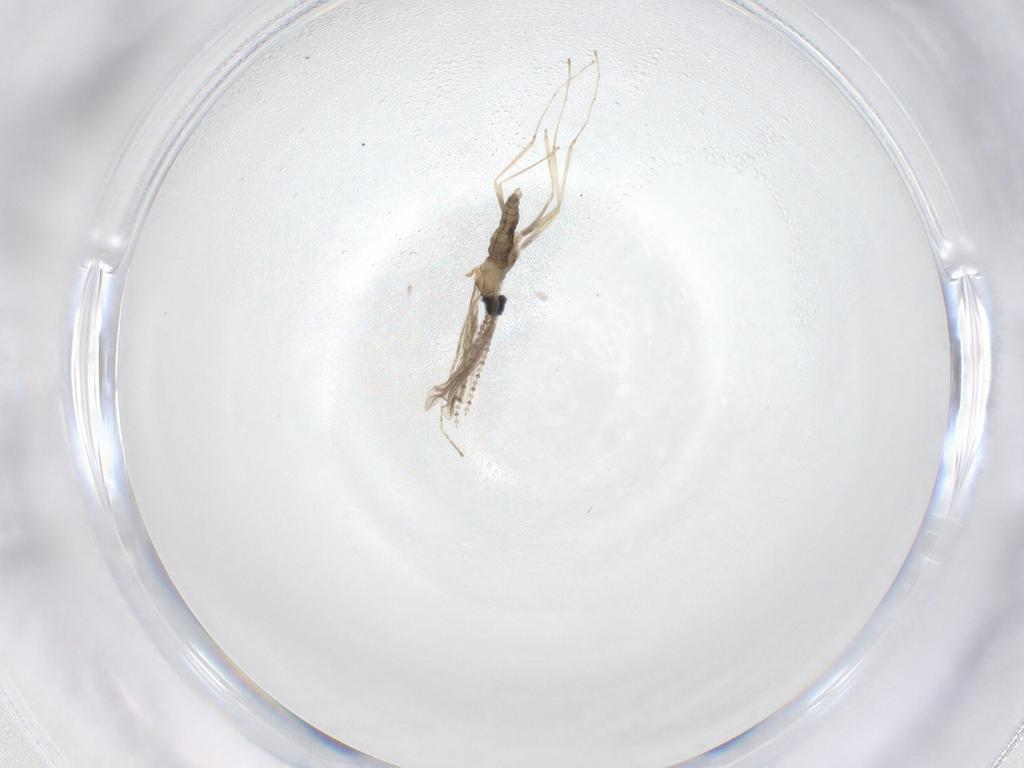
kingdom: Animalia
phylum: Arthropoda
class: Insecta
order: Diptera
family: Cecidomyiidae
